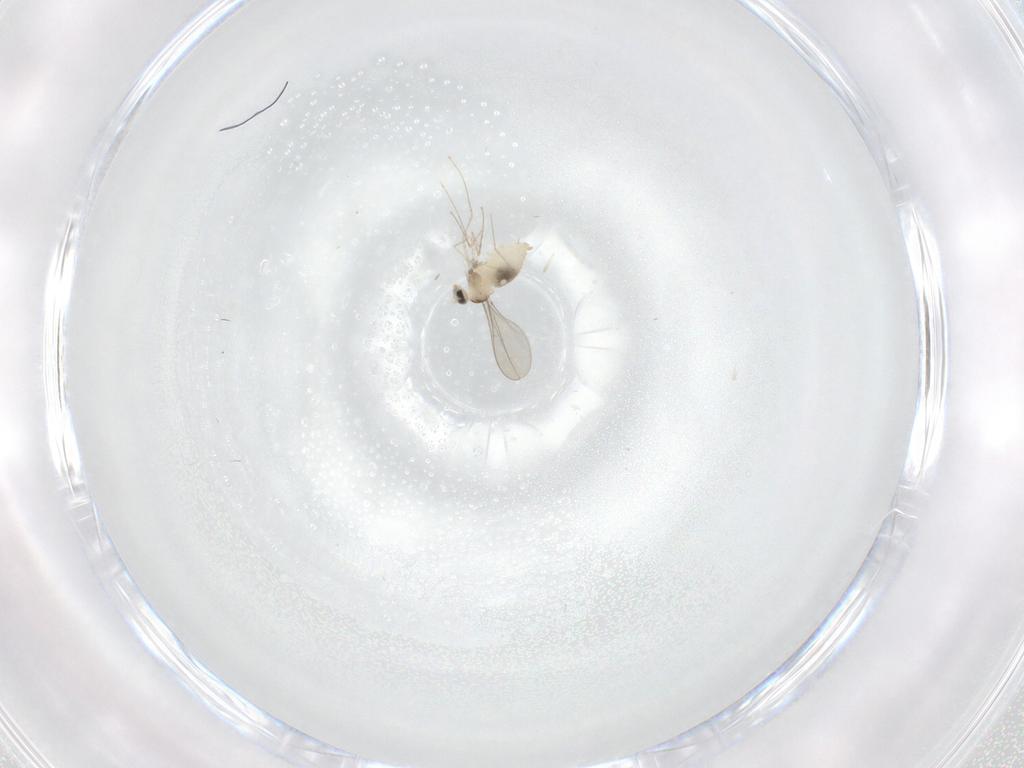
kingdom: Animalia
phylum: Arthropoda
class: Insecta
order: Diptera
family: Cecidomyiidae
